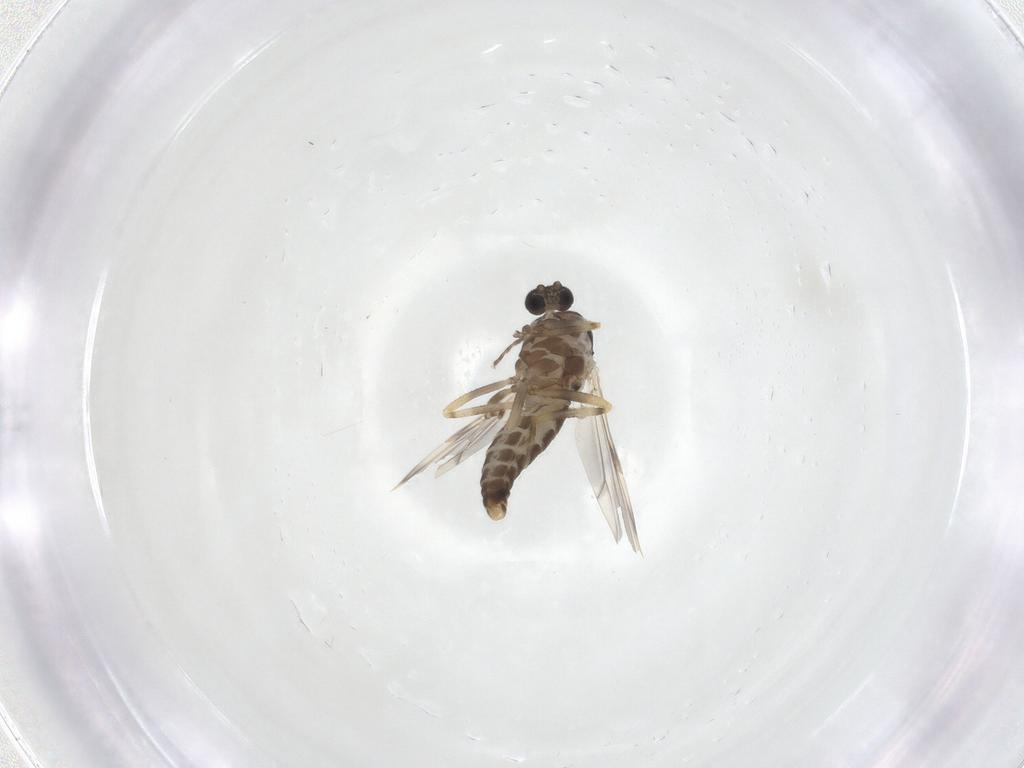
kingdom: Animalia
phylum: Arthropoda
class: Insecta
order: Diptera
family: Ceratopogonidae
